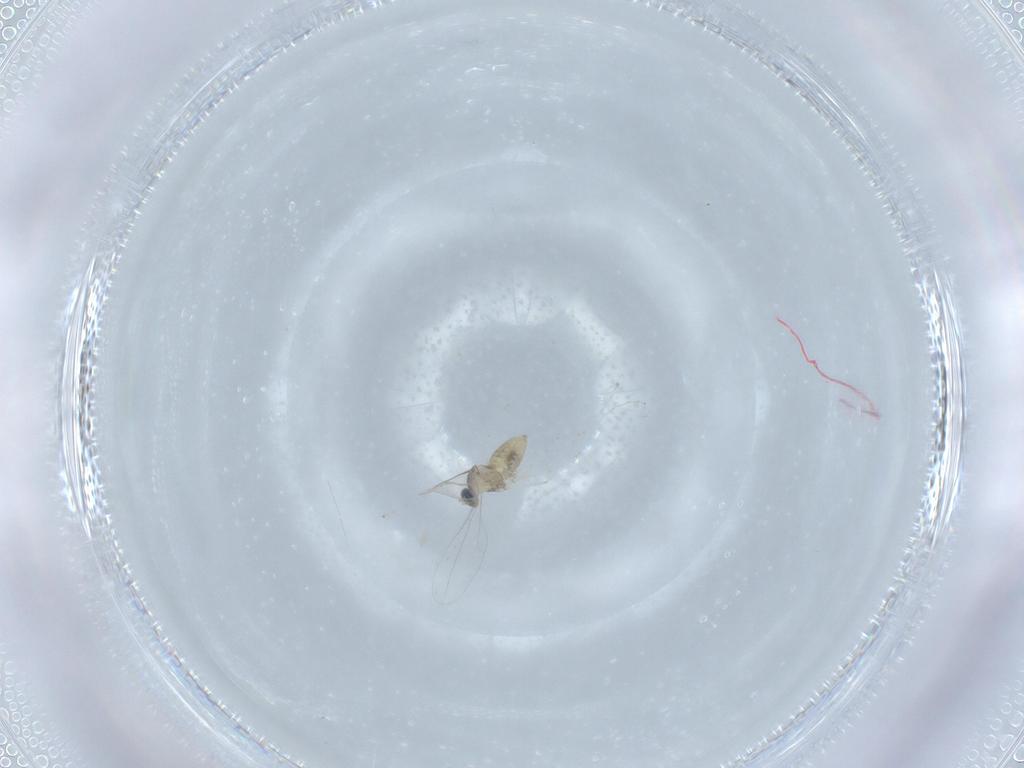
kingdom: Animalia
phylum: Arthropoda
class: Insecta
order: Diptera
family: Cecidomyiidae
